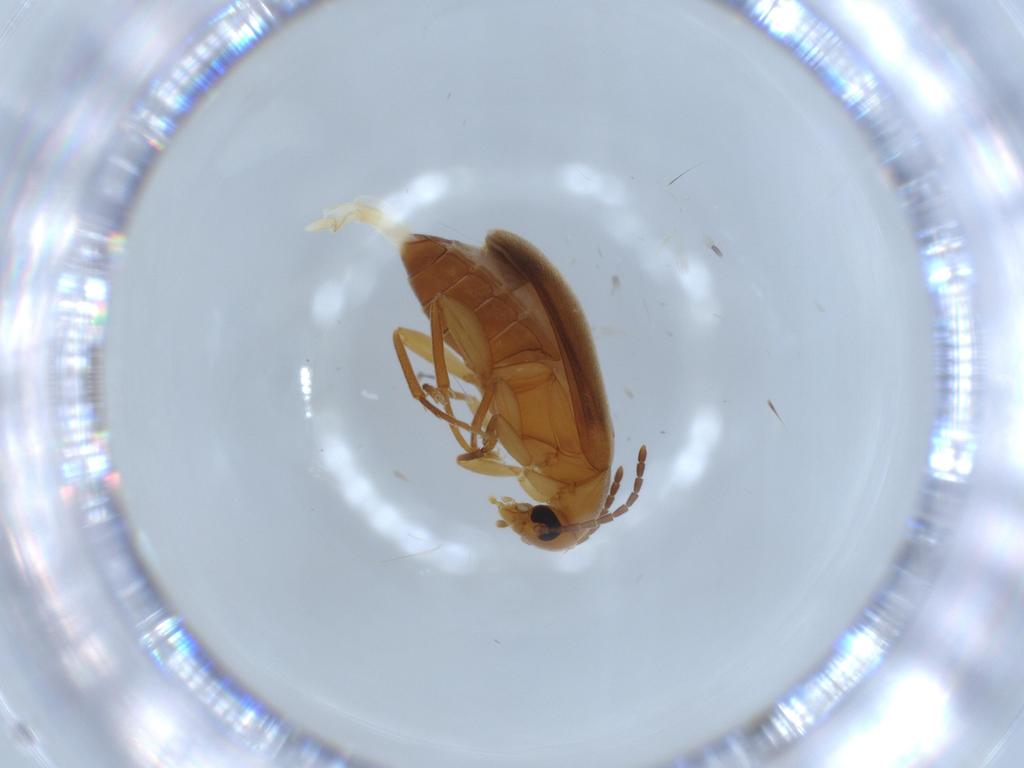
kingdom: Animalia
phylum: Arthropoda
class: Insecta
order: Coleoptera
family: Scraptiidae
